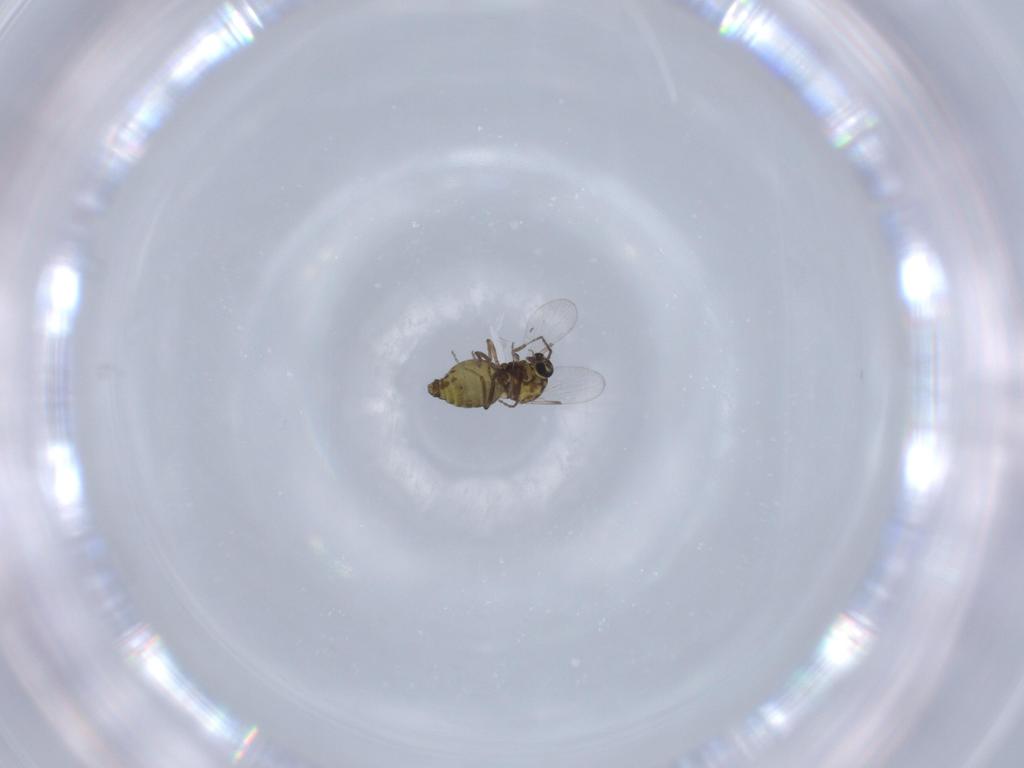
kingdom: Animalia
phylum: Arthropoda
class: Insecta
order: Diptera
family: Ceratopogonidae
